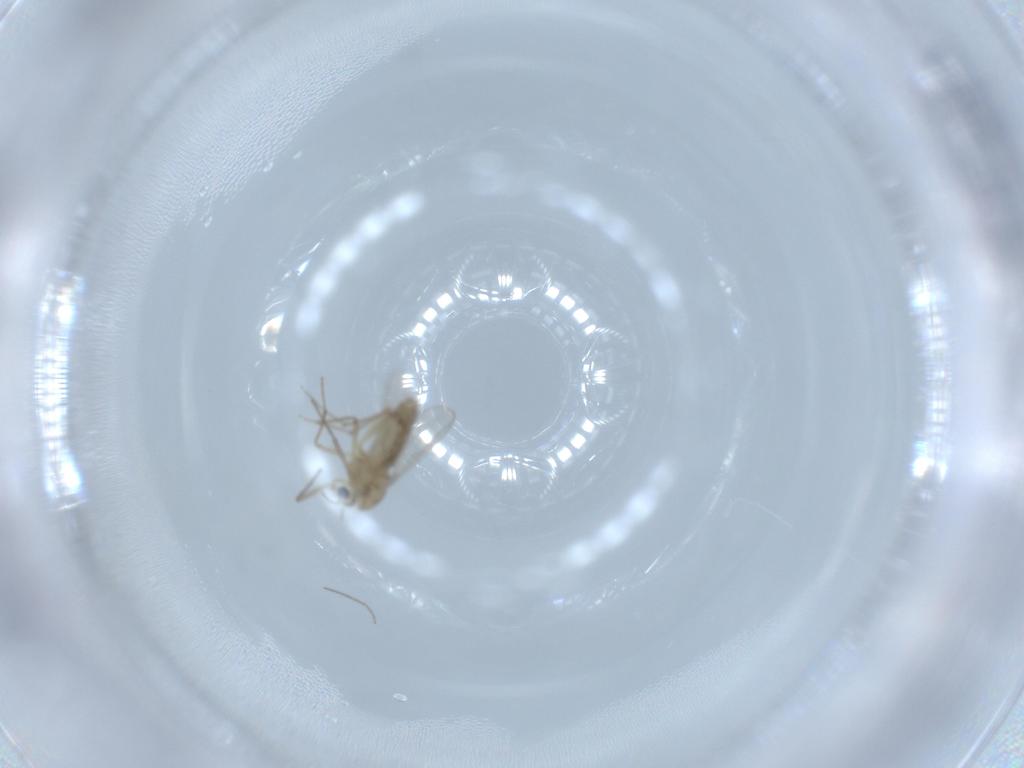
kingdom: Animalia
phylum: Arthropoda
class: Insecta
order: Diptera
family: Chironomidae
